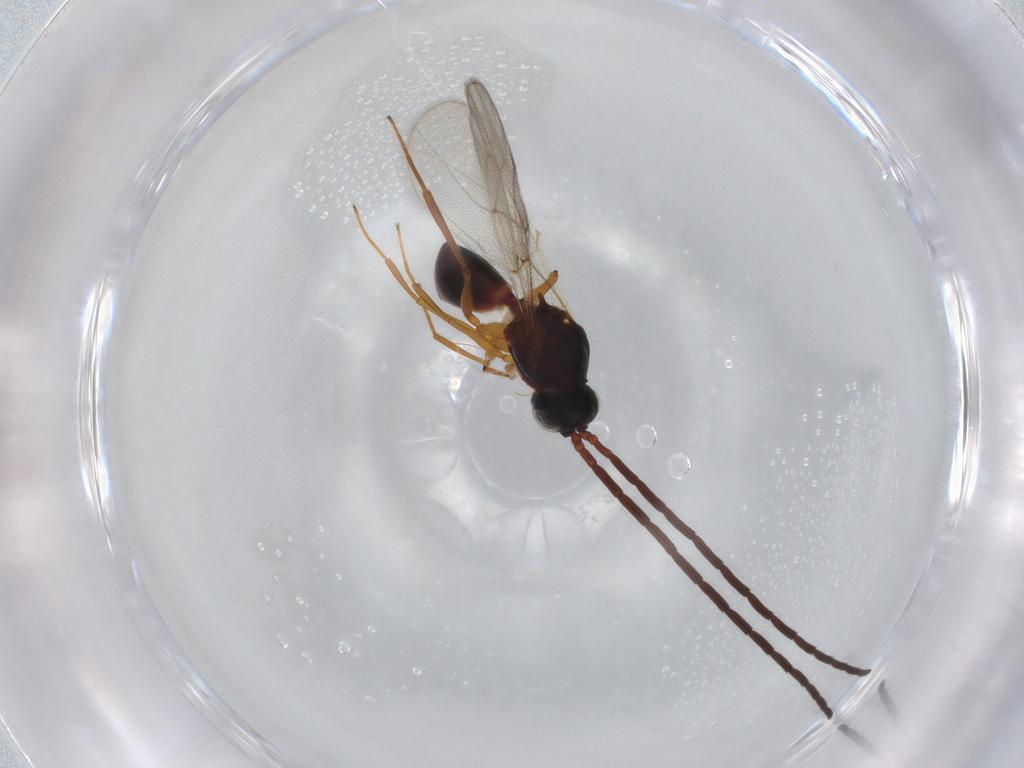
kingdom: Animalia
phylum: Arthropoda
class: Insecta
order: Hymenoptera
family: Figitidae
